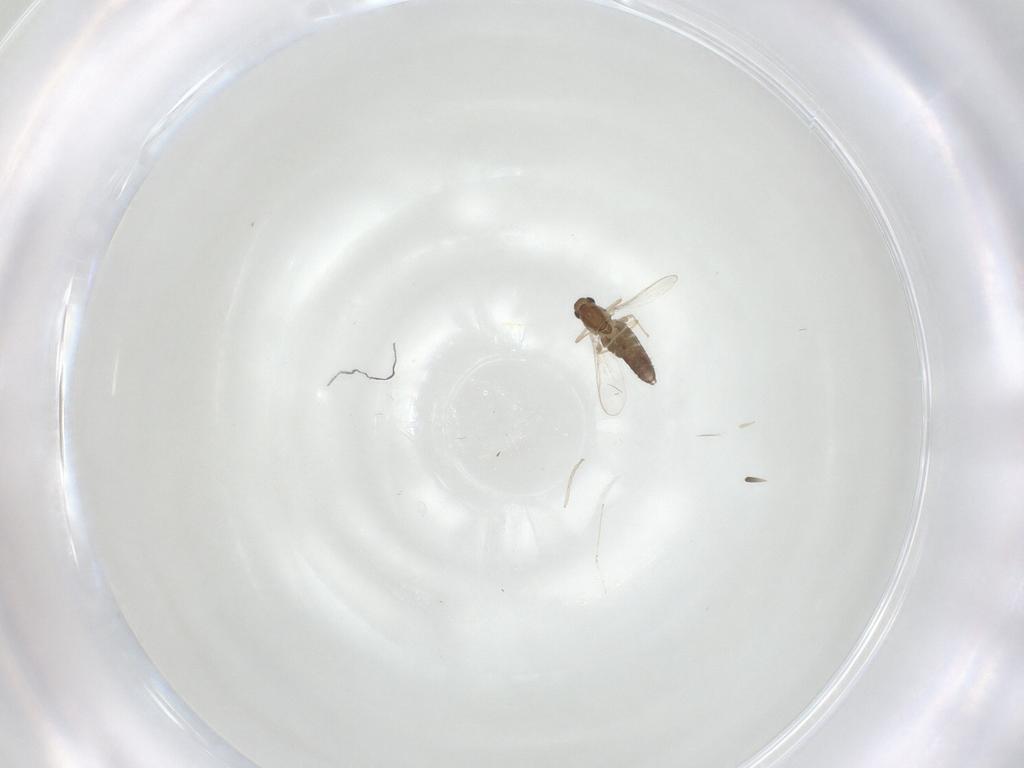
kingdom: Animalia
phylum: Arthropoda
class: Insecta
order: Diptera
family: Chironomidae
